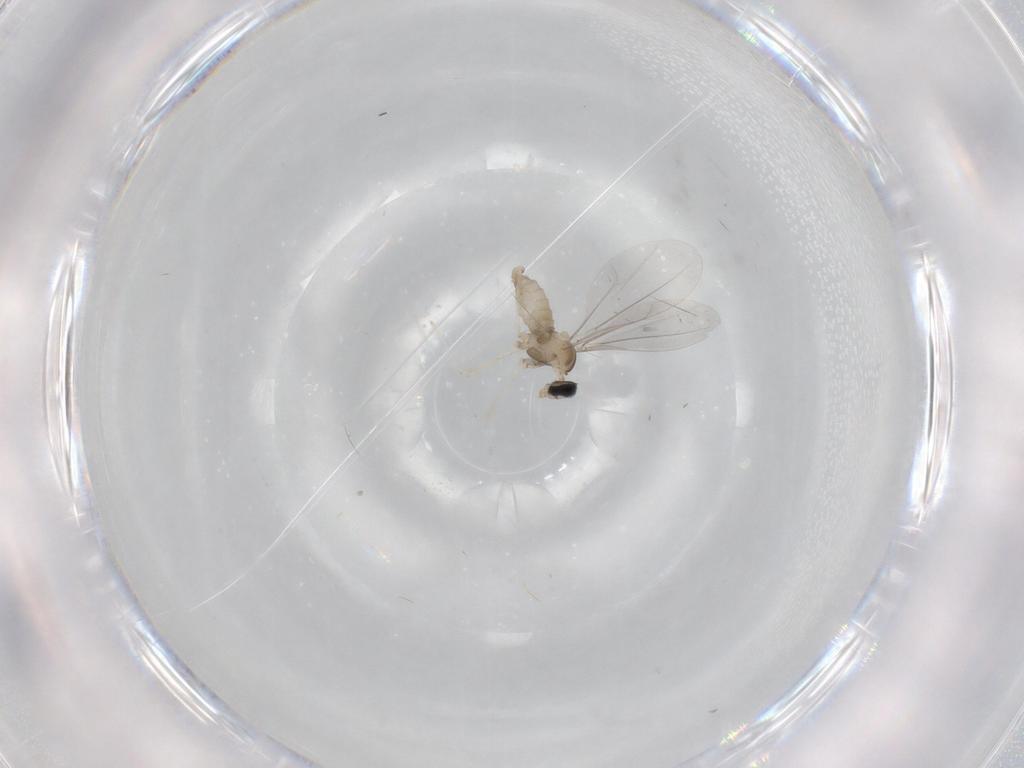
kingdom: Animalia
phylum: Arthropoda
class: Insecta
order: Diptera
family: Cecidomyiidae
